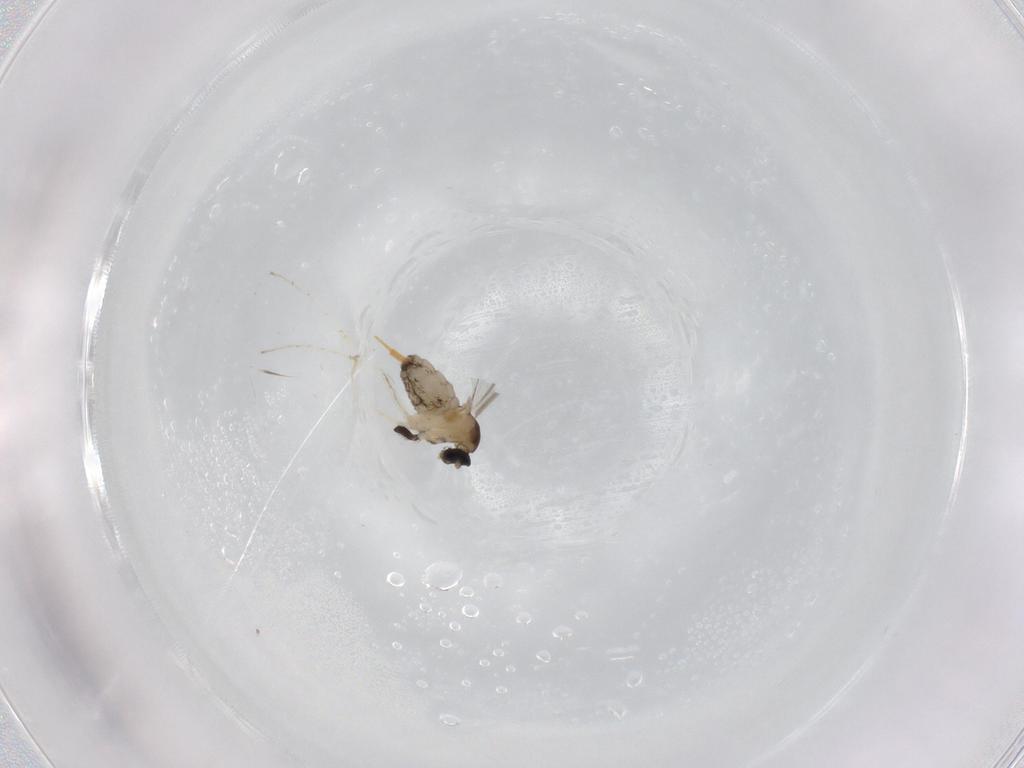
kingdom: Animalia
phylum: Arthropoda
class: Insecta
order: Diptera
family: Cecidomyiidae
